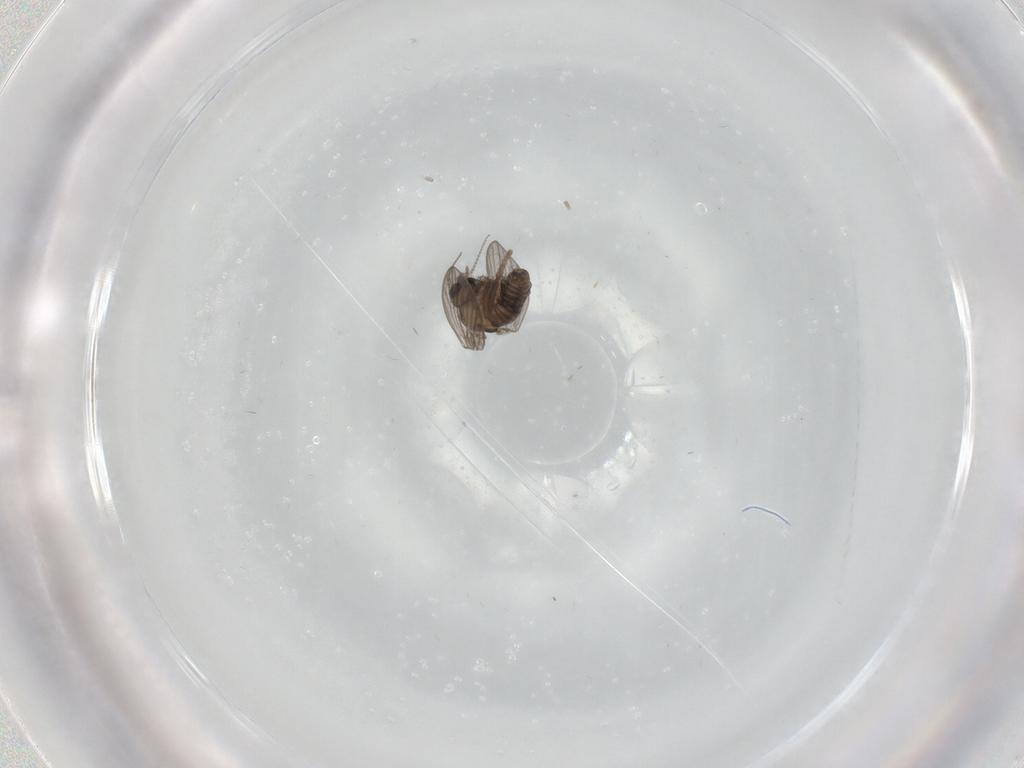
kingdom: Animalia
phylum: Arthropoda
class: Insecta
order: Diptera
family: Psychodidae
